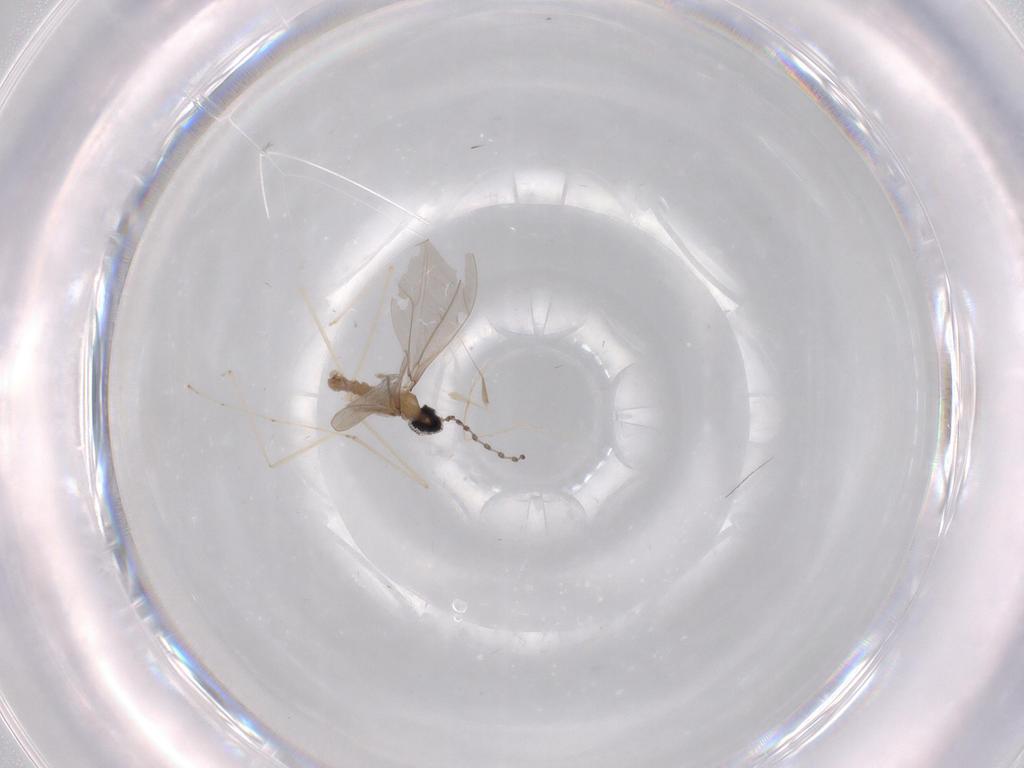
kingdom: Animalia
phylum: Arthropoda
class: Insecta
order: Diptera
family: Cecidomyiidae
